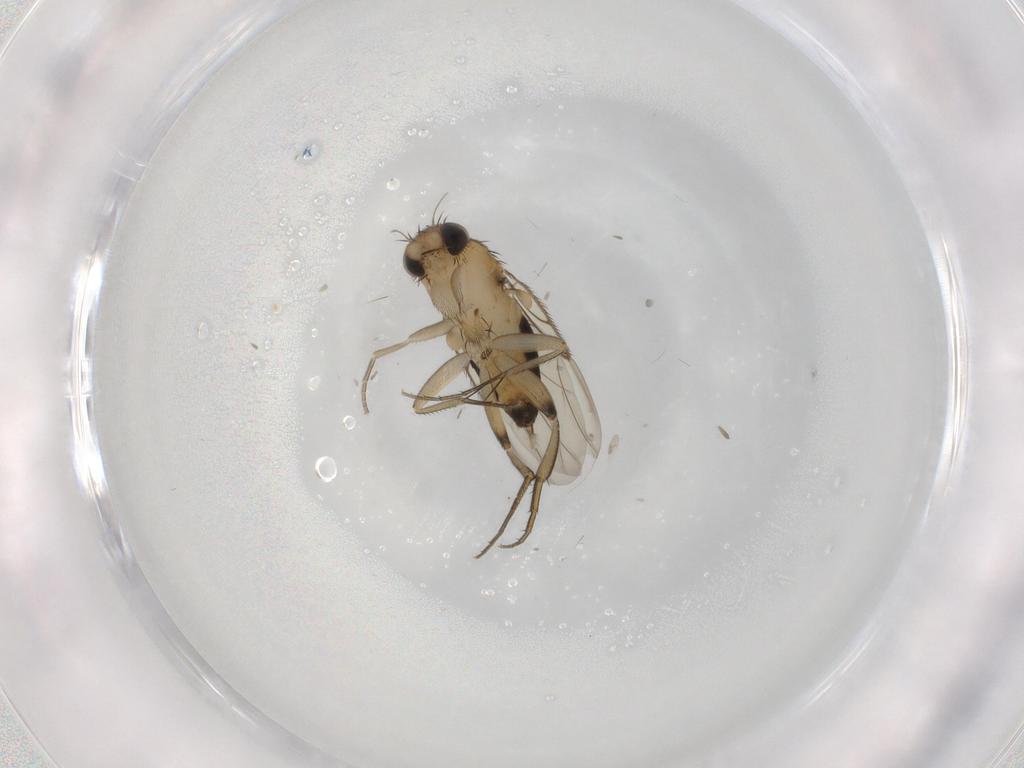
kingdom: Animalia
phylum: Arthropoda
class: Insecta
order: Diptera
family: Phoridae
